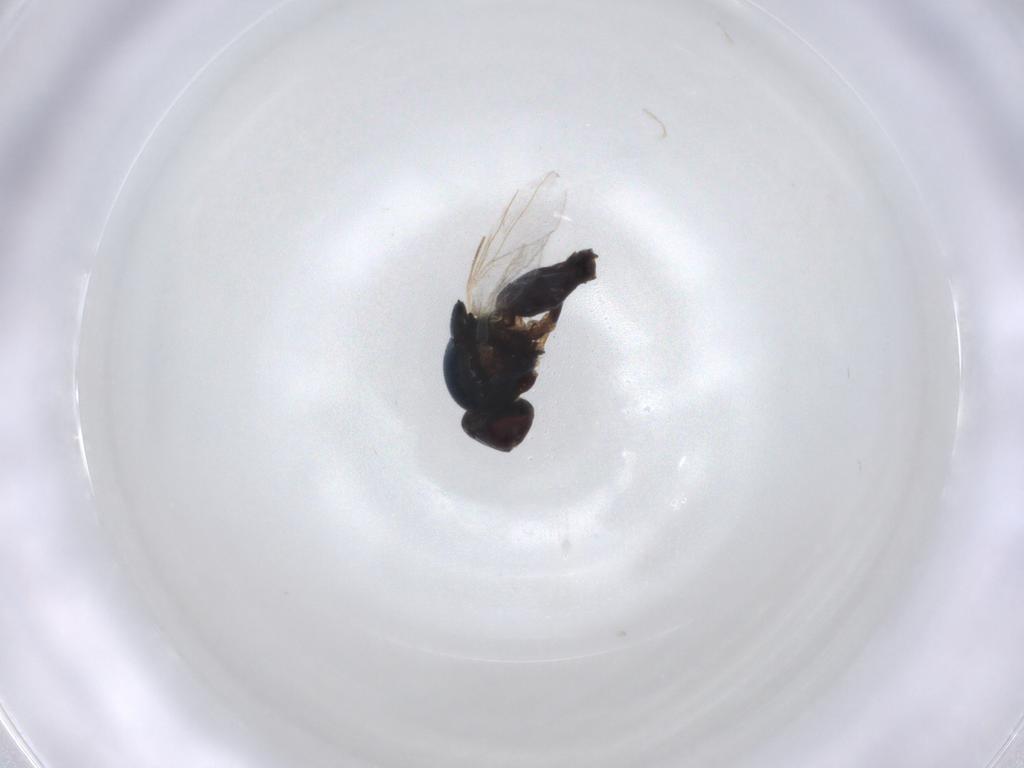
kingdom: Animalia
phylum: Arthropoda
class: Insecta
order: Diptera
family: Chloropidae
